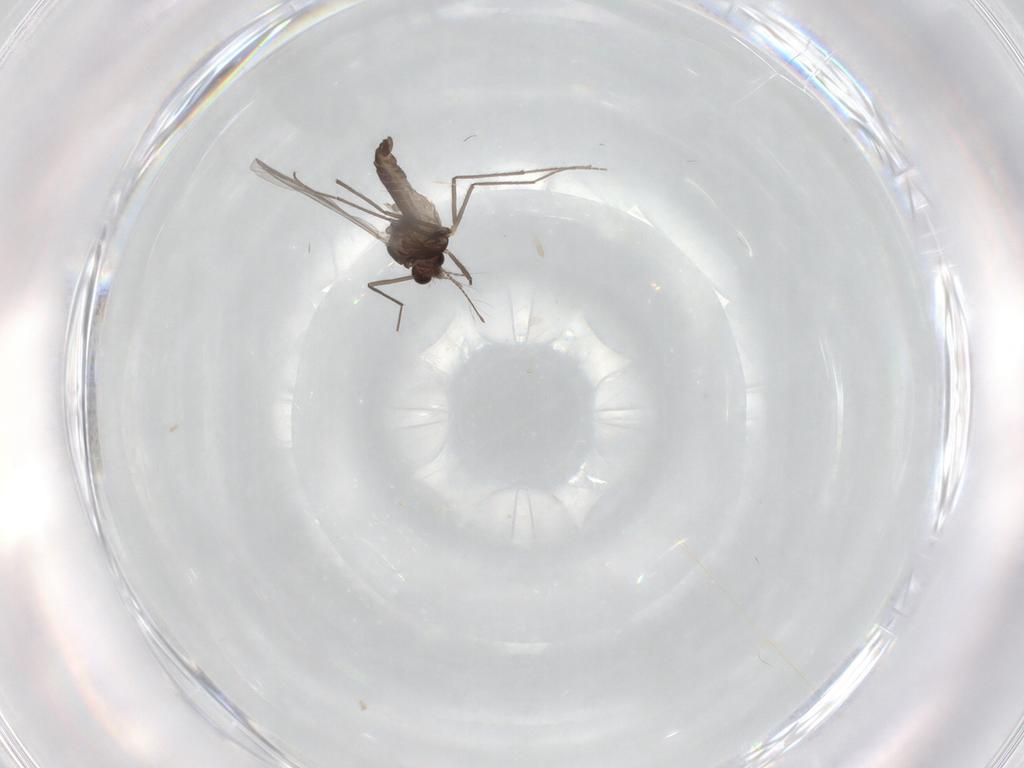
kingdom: Animalia
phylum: Arthropoda
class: Insecta
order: Diptera
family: Chironomidae
